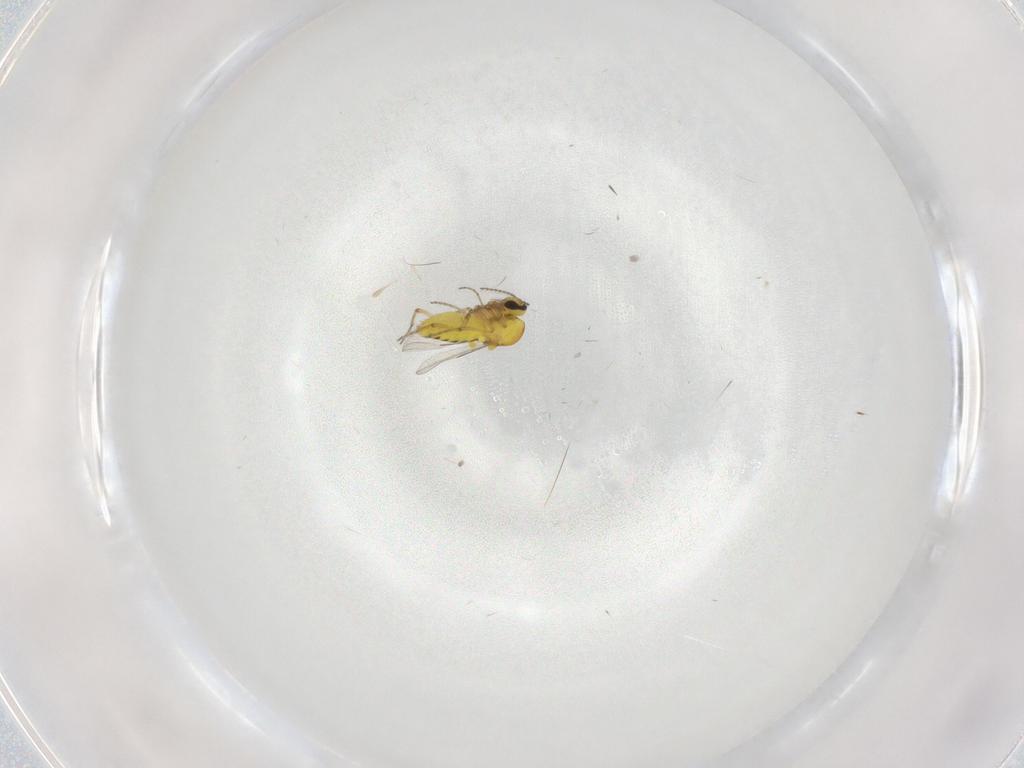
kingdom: Animalia
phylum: Arthropoda
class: Insecta
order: Diptera
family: Ceratopogonidae
